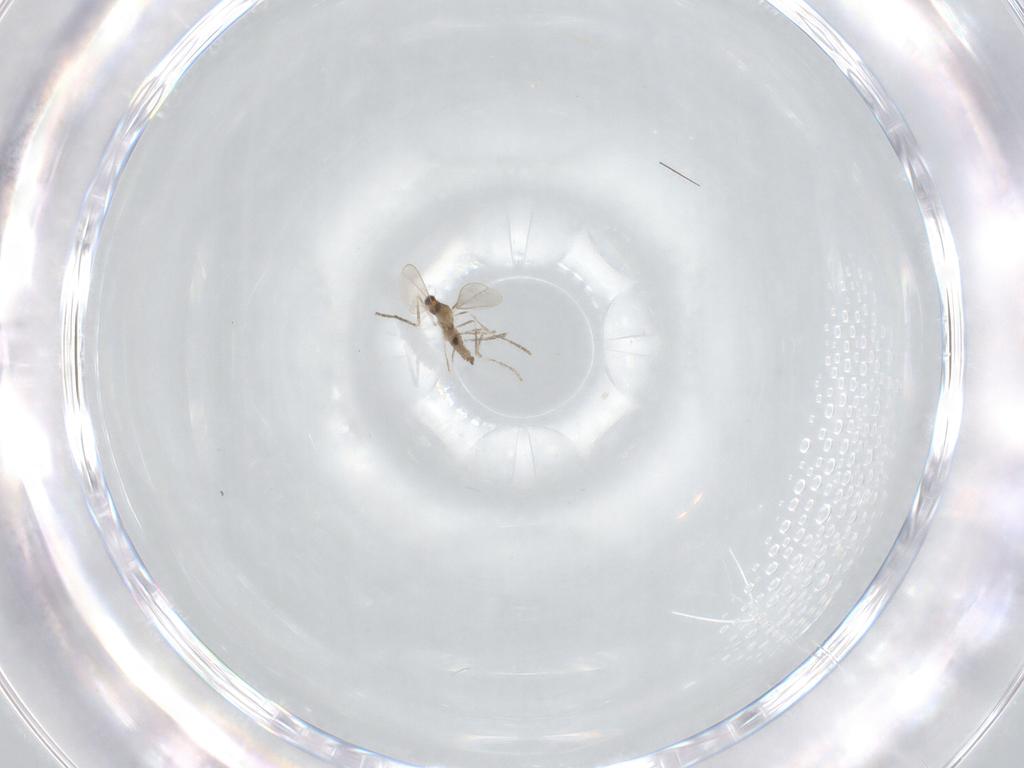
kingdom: Animalia
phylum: Arthropoda
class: Insecta
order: Diptera
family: Cecidomyiidae
